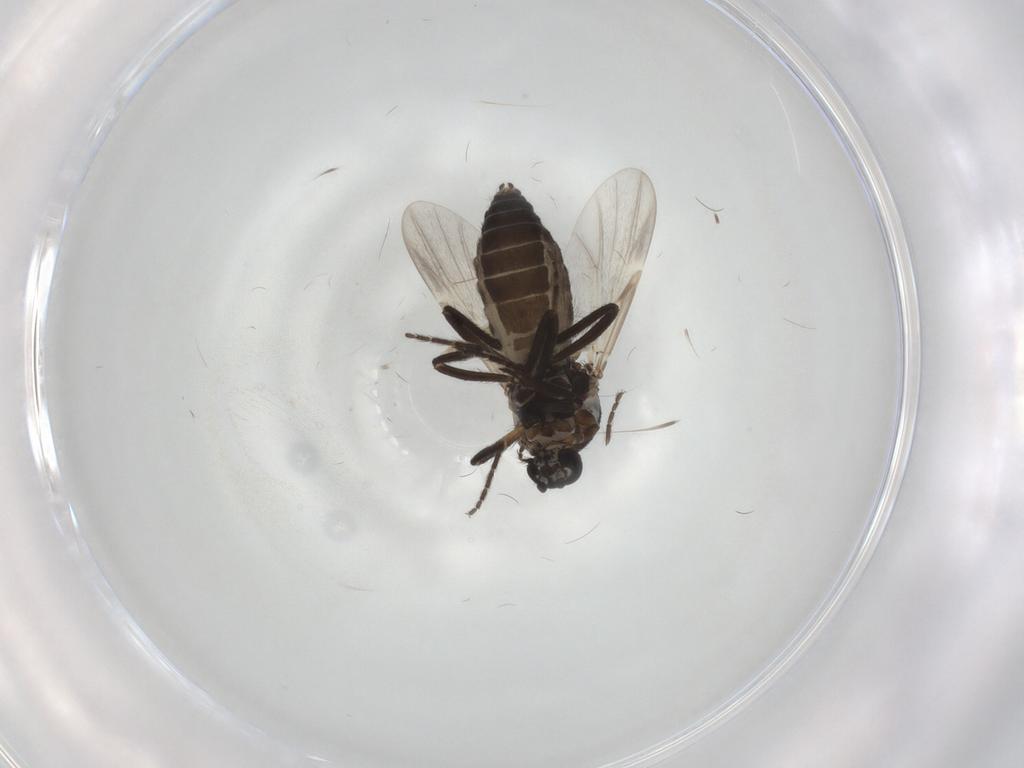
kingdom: Animalia
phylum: Arthropoda
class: Insecta
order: Diptera
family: Ceratopogonidae
